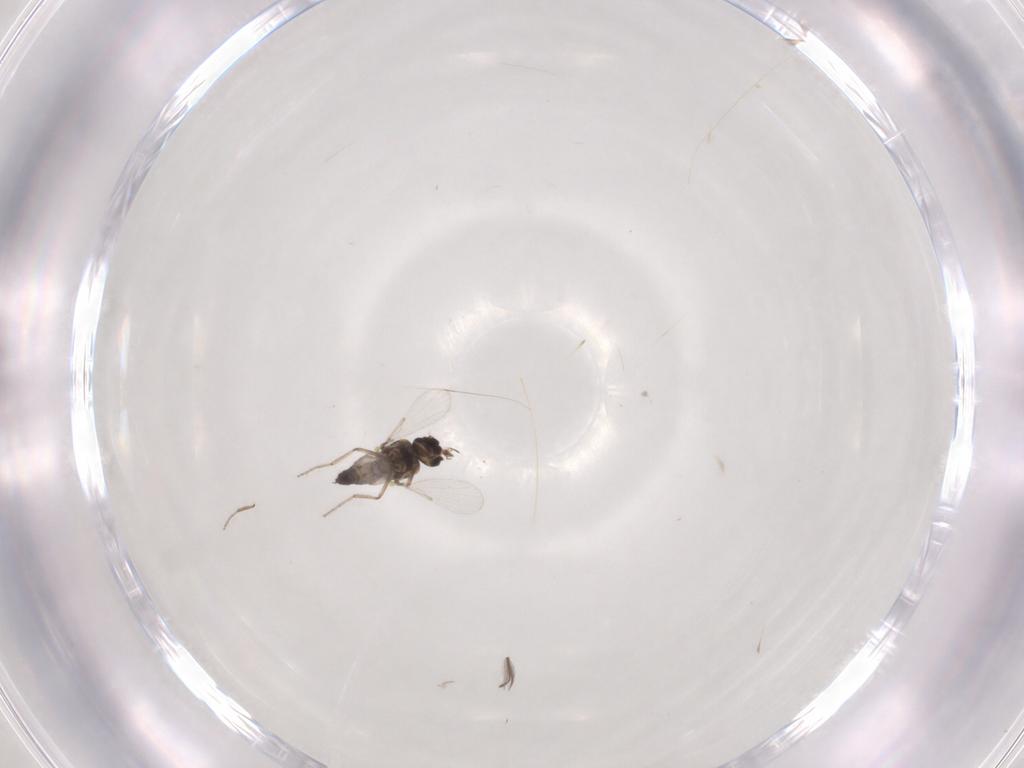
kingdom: Animalia
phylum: Arthropoda
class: Insecta
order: Diptera
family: Ceratopogonidae
